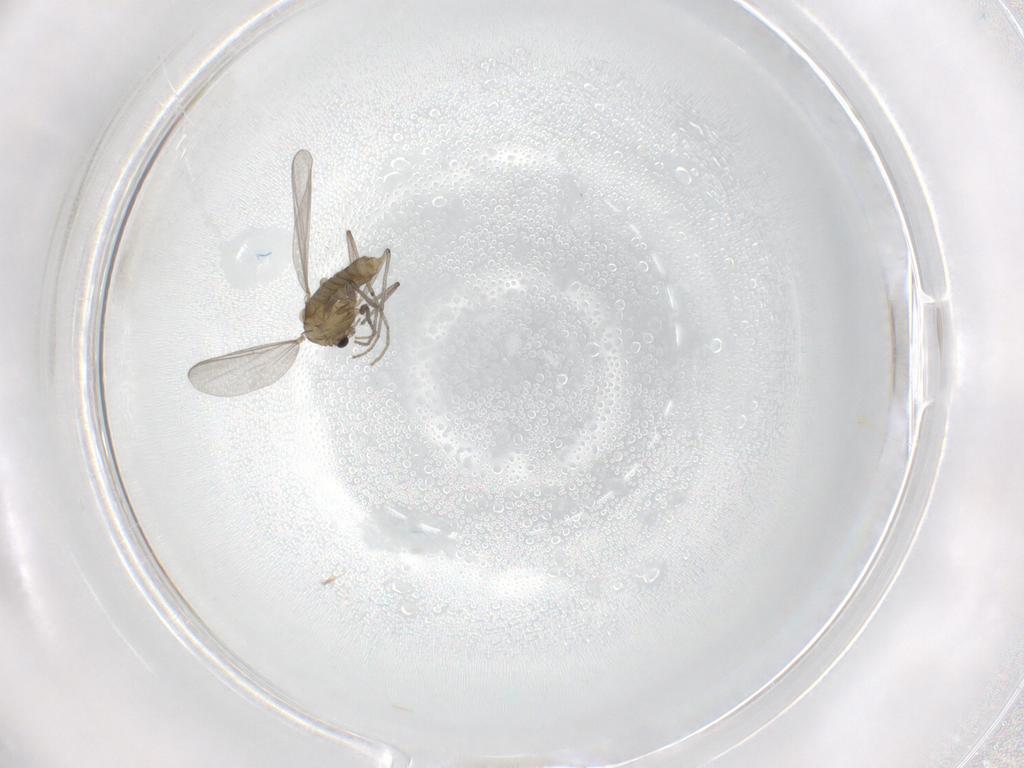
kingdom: Animalia
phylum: Arthropoda
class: Insecta
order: Diptera
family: Chironomidae
